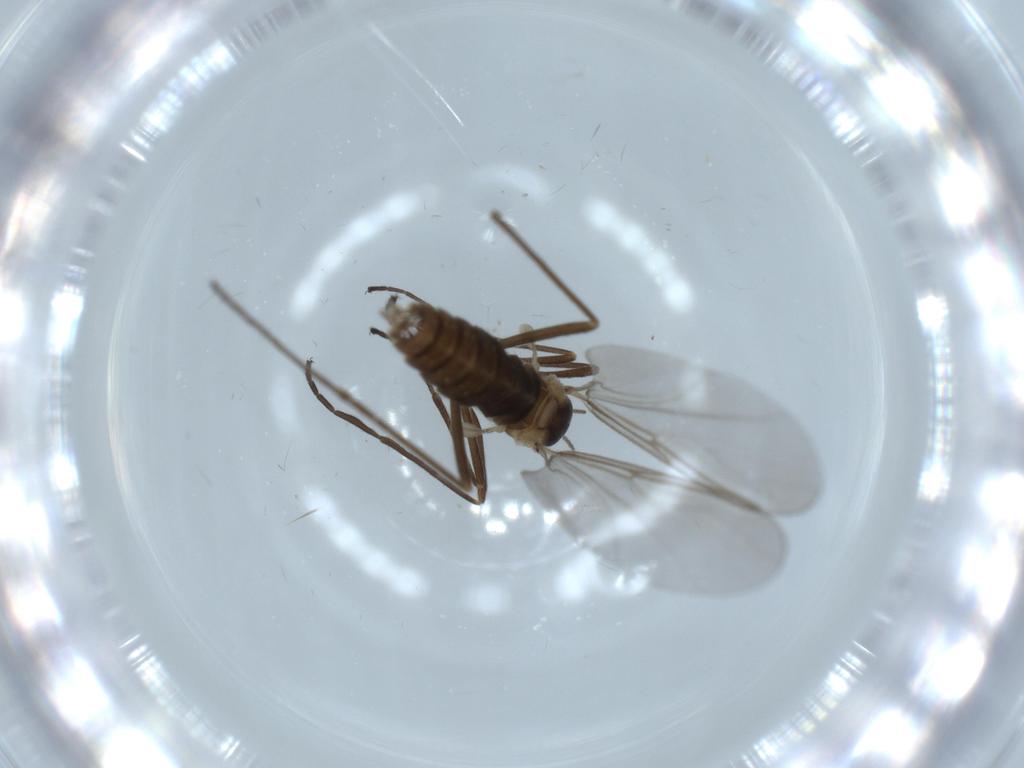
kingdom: Animalia
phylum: Arthropoda
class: Insecta
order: Diptera
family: Cecidomyiidae
